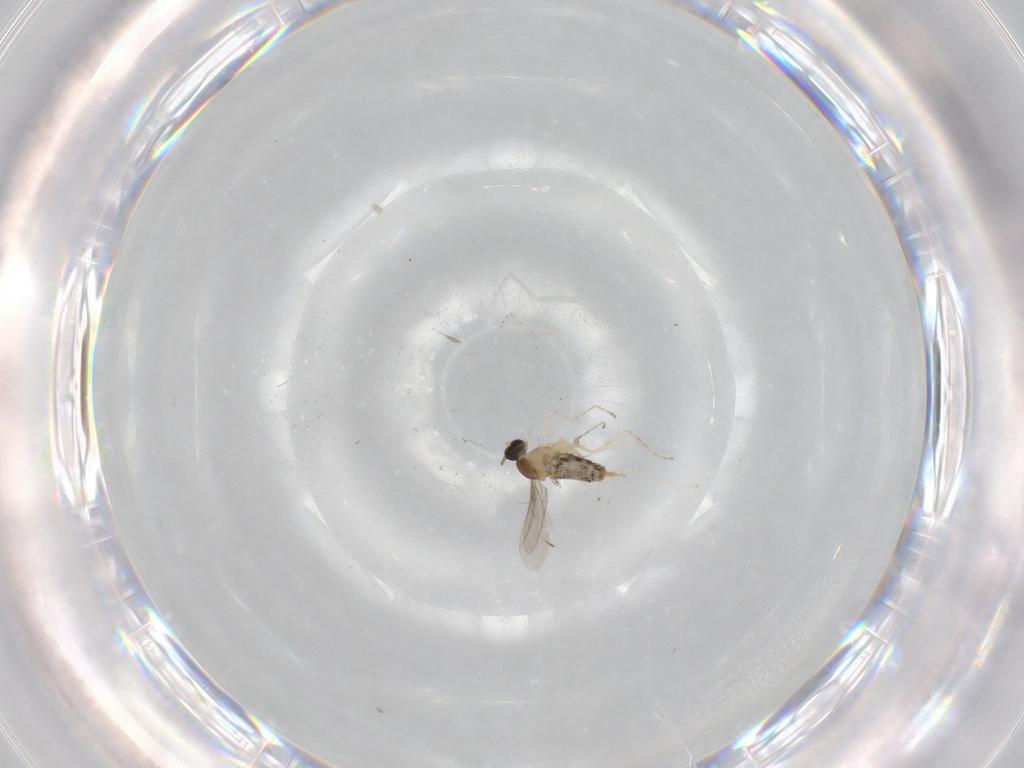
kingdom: Animalia
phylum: Arthropoda
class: Insecta
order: Diptera
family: Cecidomyiidae
